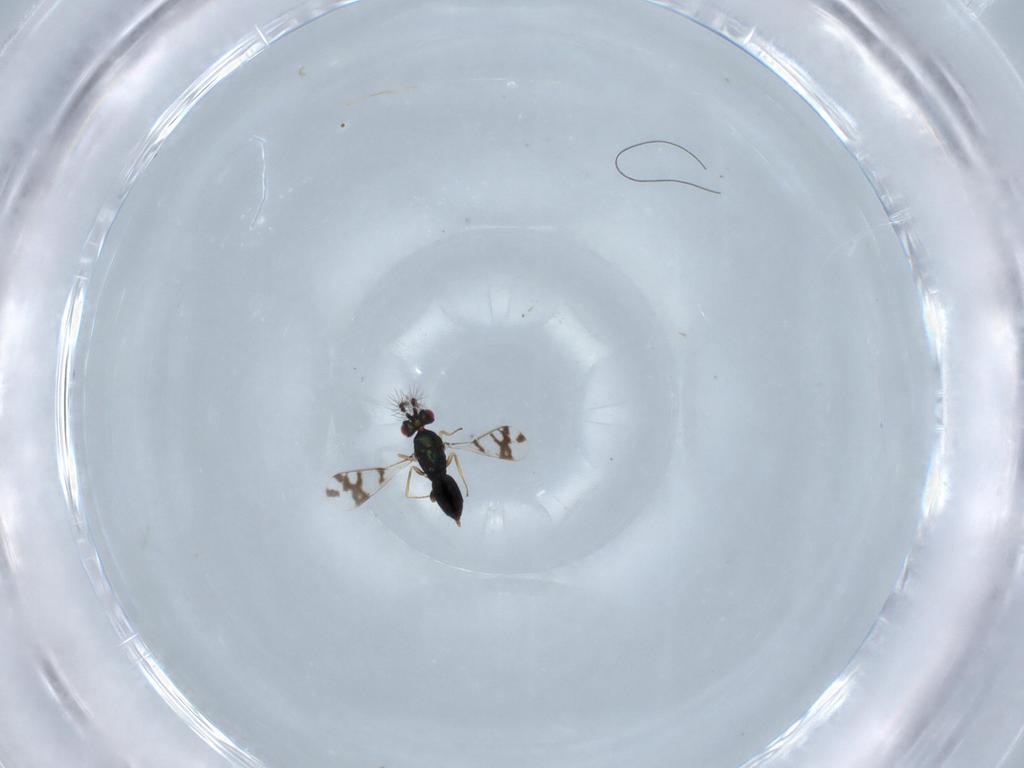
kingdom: Animalia
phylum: Arthropoda
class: Insecta
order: Hymenoptera
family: Eulophidae
